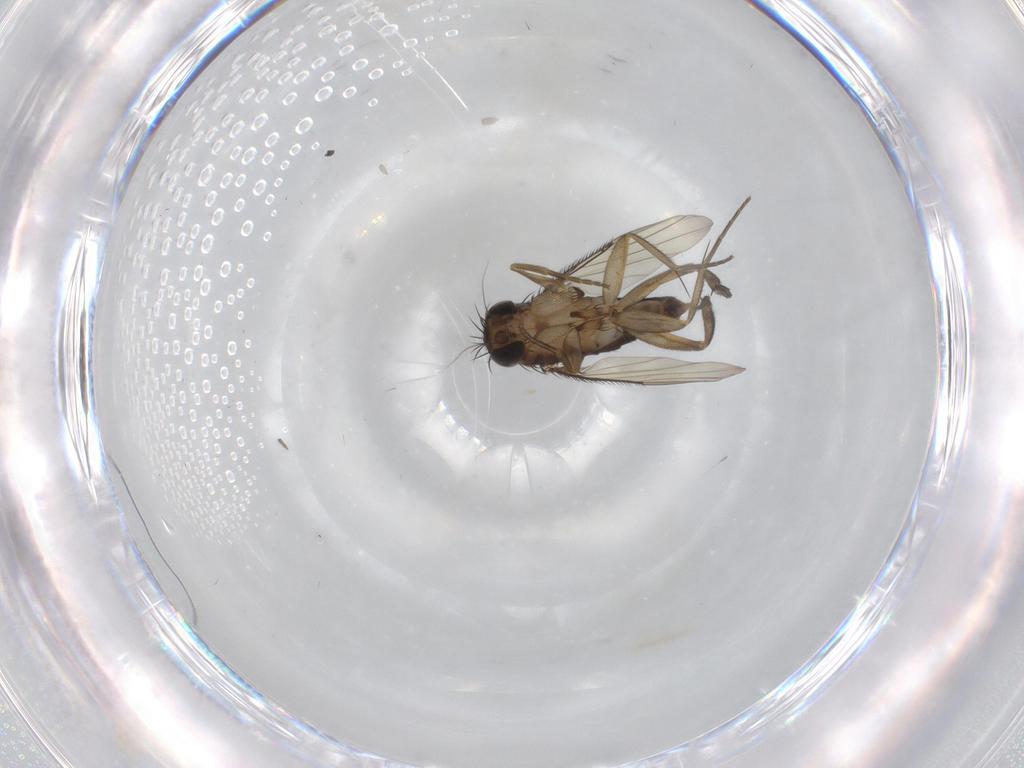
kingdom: Animalia
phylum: Arthropoda
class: Insecta
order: Diptera
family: Phoridae
